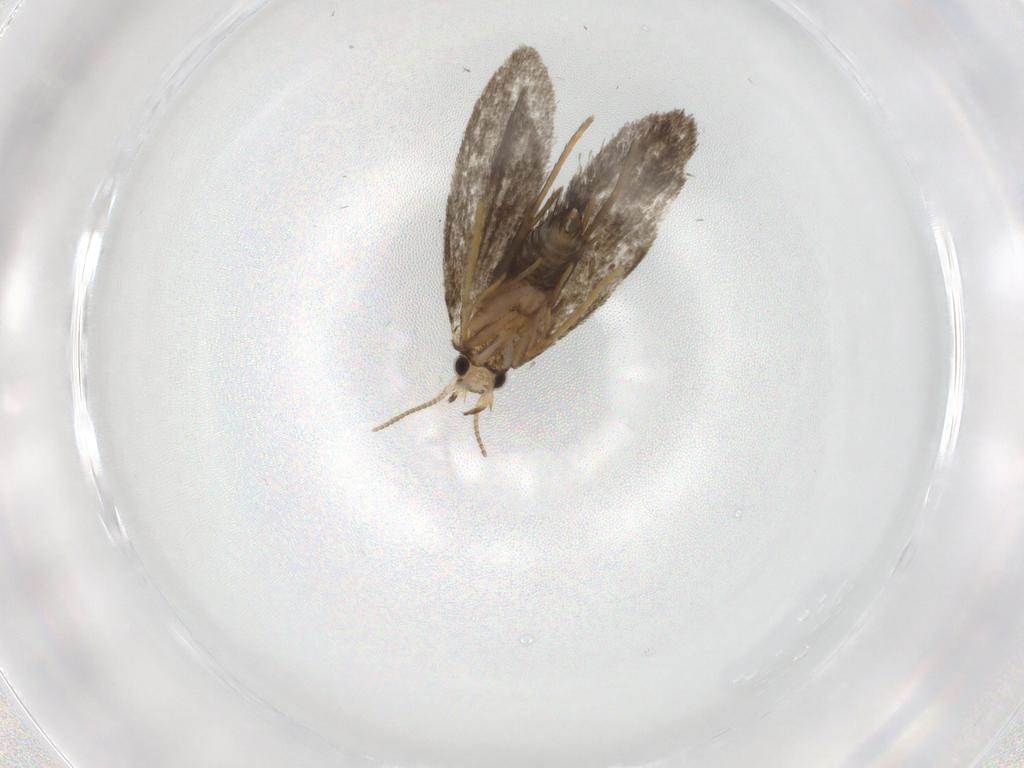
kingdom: Animalia
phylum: Arthropoda
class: Insecta
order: Lepidoptera
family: Psychidae
